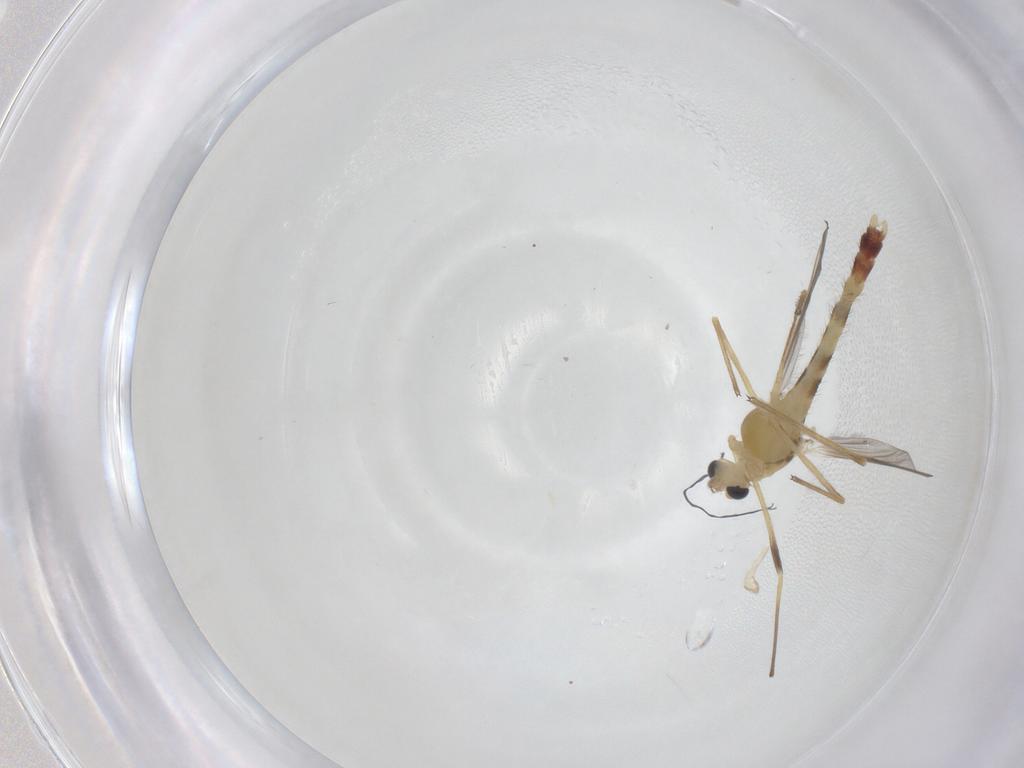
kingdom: Animalia
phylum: Arthropoda
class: Insecta
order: Diptera
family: Chironomidae
